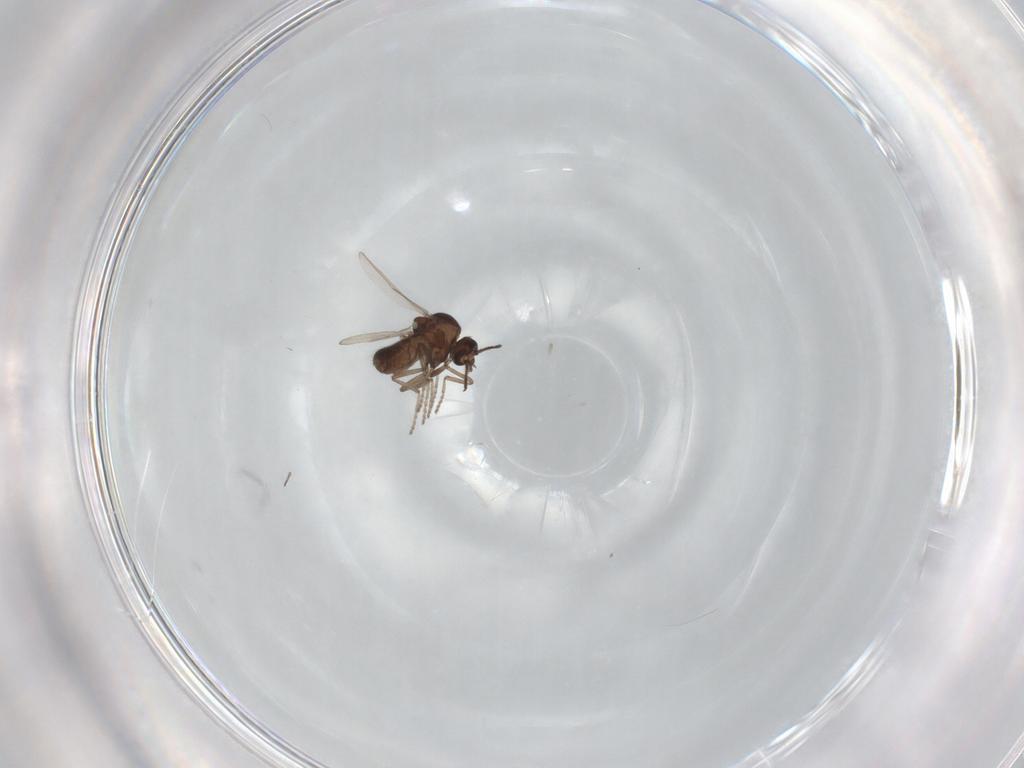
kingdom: Animalia
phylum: Arthropoda
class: Insecta
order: Diptera
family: Ceratopogonidae
